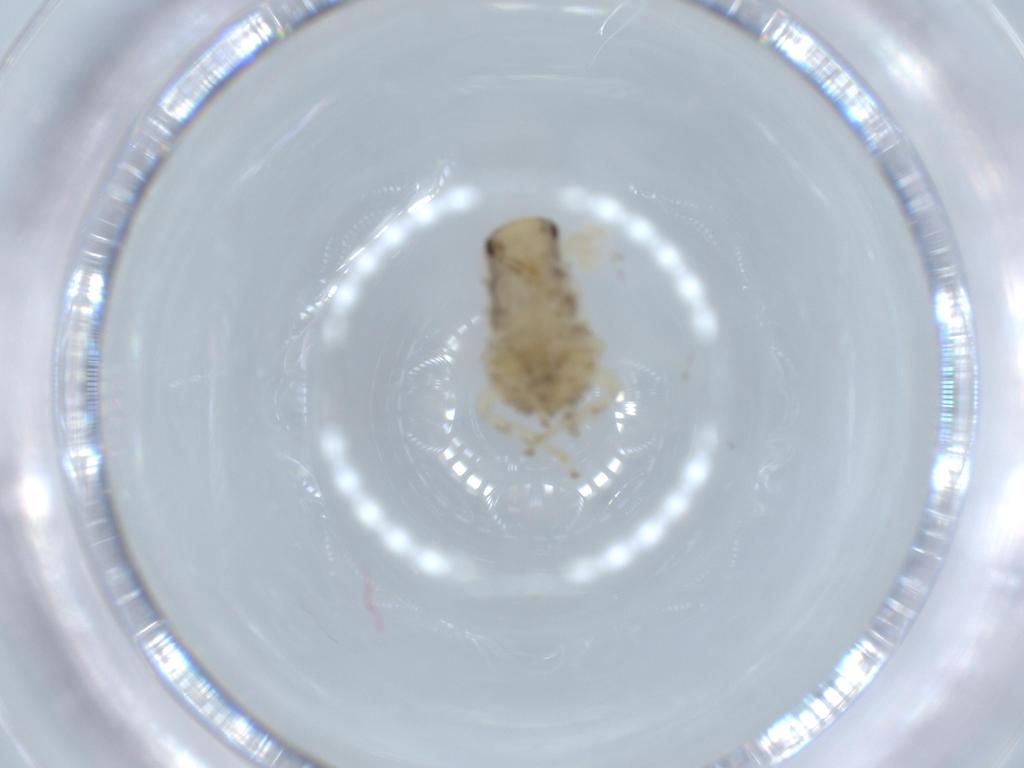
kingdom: Animalia
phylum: Arthropoda
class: Insecta
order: Blattodea
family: Ectobiidae
